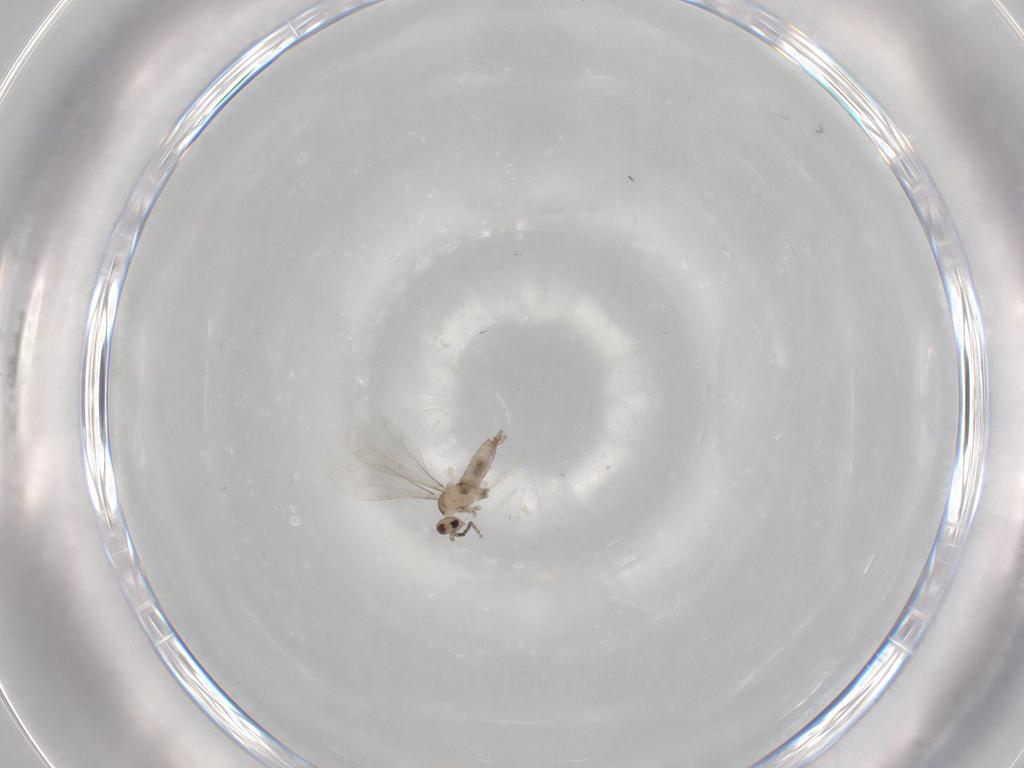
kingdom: Animalia
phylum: Arthropoda
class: Insecta
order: Diptera
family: Cecidomyiidae
